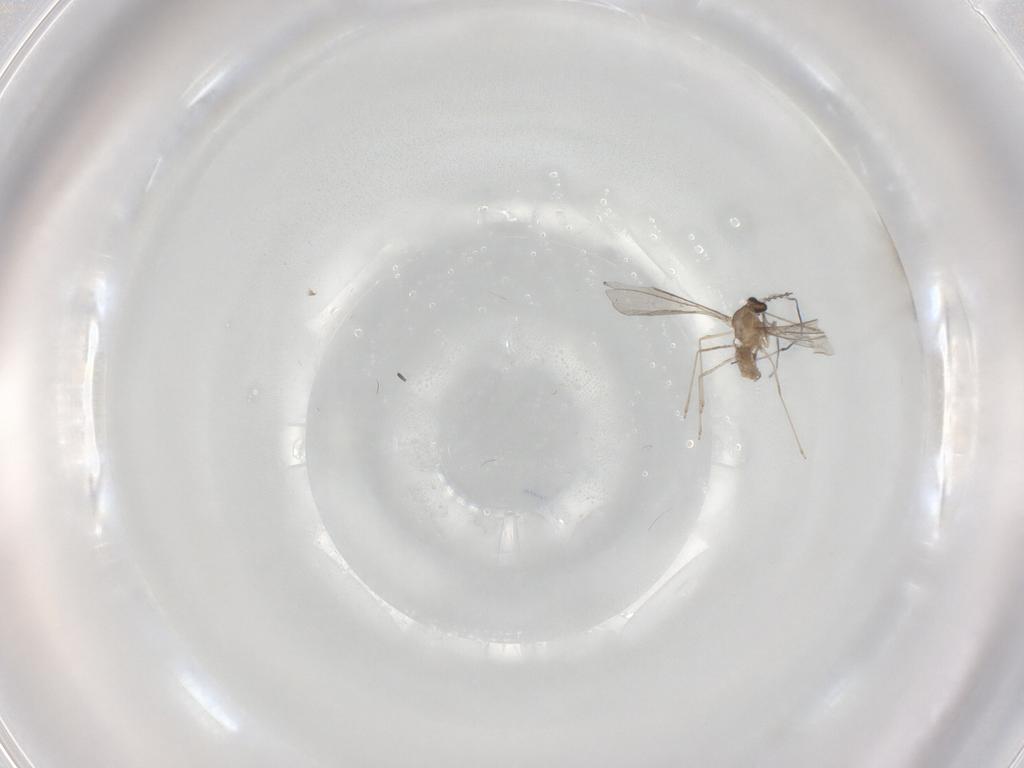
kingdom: Animalia
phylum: Arthropoda
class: Insecta
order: Diptera
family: Cecidomyiidae
